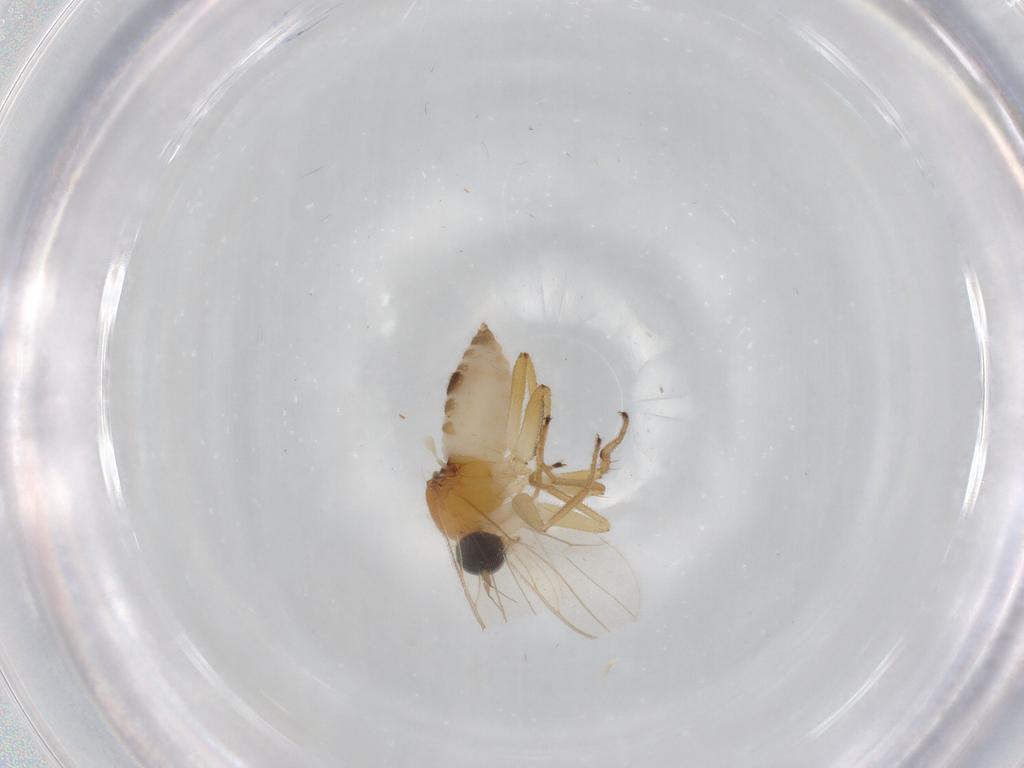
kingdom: Animalia
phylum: Arthropoda
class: Insecta
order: Diptera
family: Hybotidae
